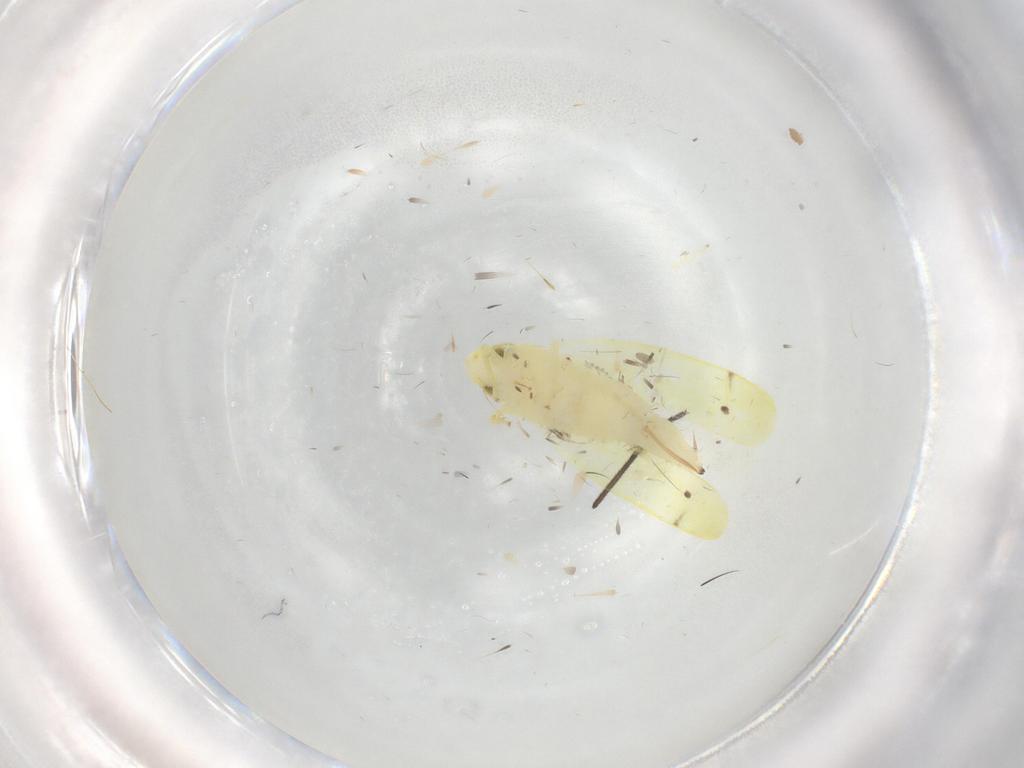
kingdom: Animalia
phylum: Arthropoda
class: Insecta
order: Hemiptera
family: Cicadellidae
